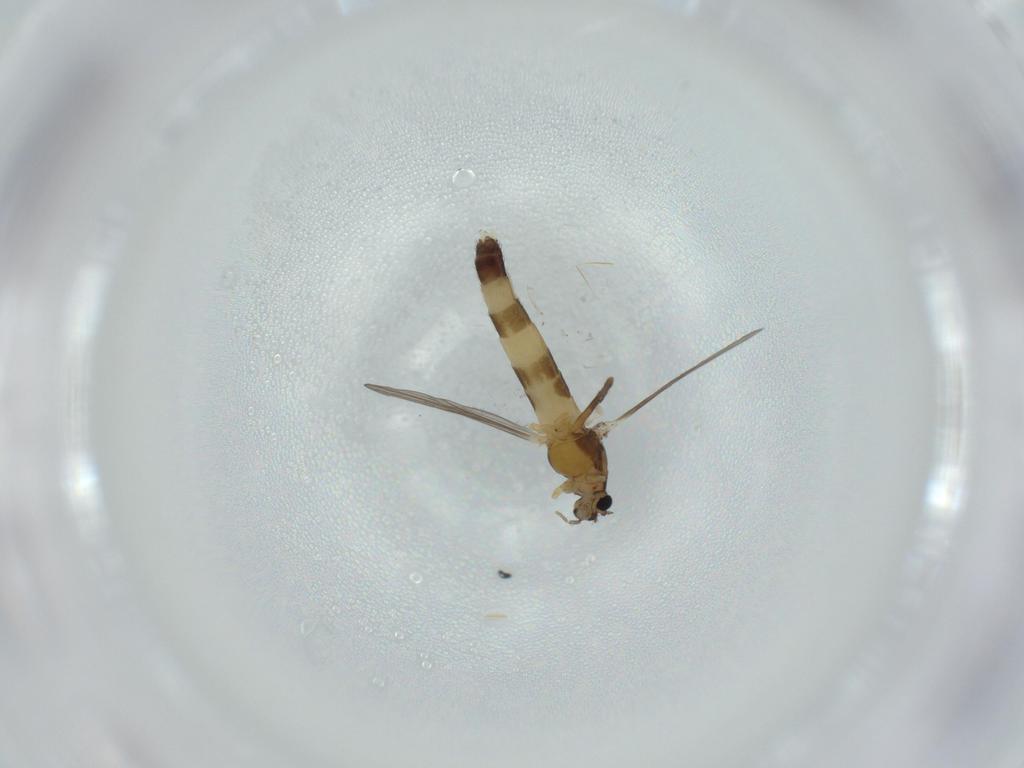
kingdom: Animalia
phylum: Arthropoda
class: Insecta
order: Diptera
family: Chironomidae
